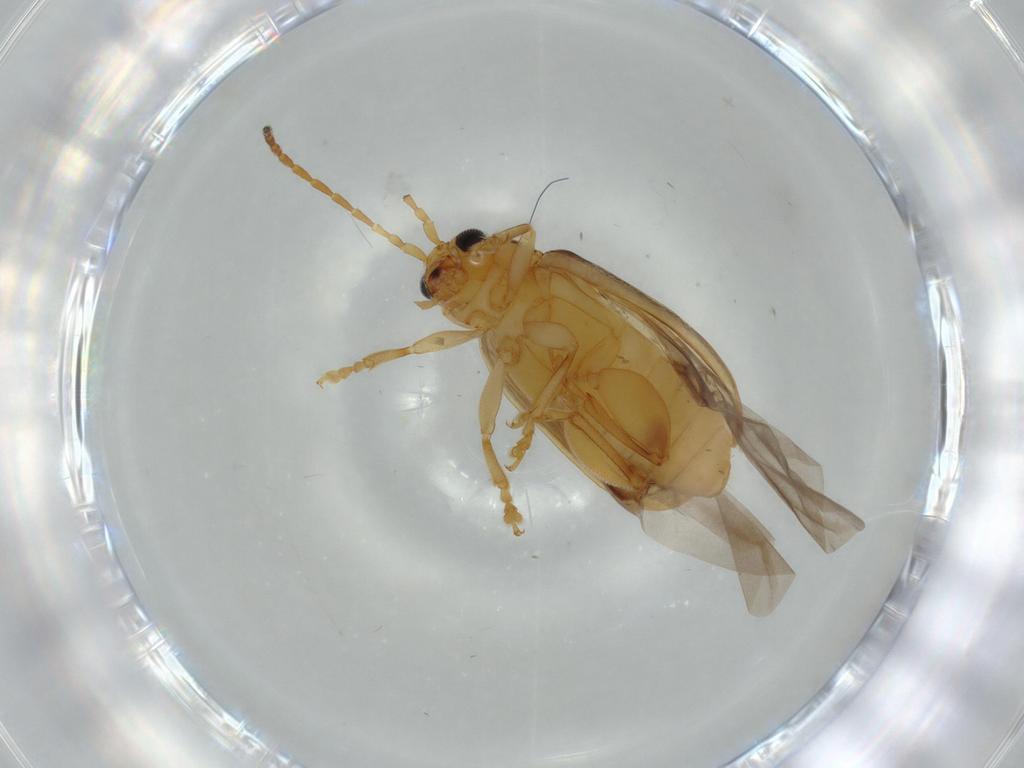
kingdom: Animalia
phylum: Arthropoda
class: Insecta
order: Coleoptera
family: Chrysomelidae
